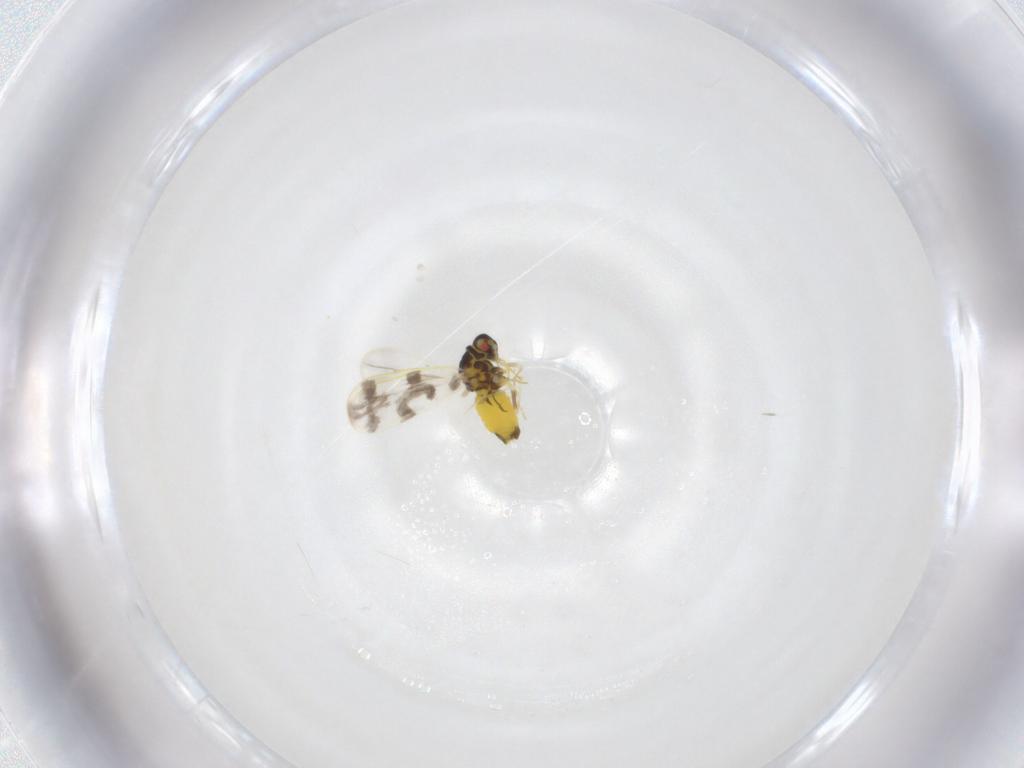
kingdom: Animalia
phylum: Arthropoda
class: Insecta
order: Hemiptera
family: Aleyrodidae
